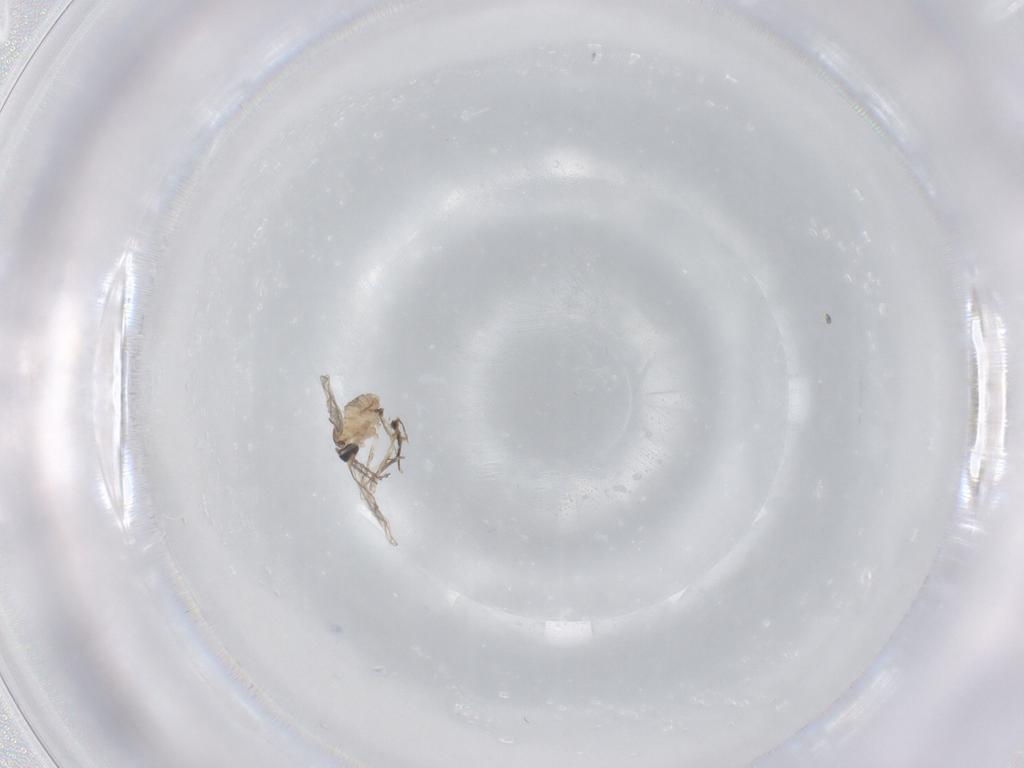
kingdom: Animalia
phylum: Arthropoda
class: Insecta
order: Diptera
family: Cecidomyiidae
